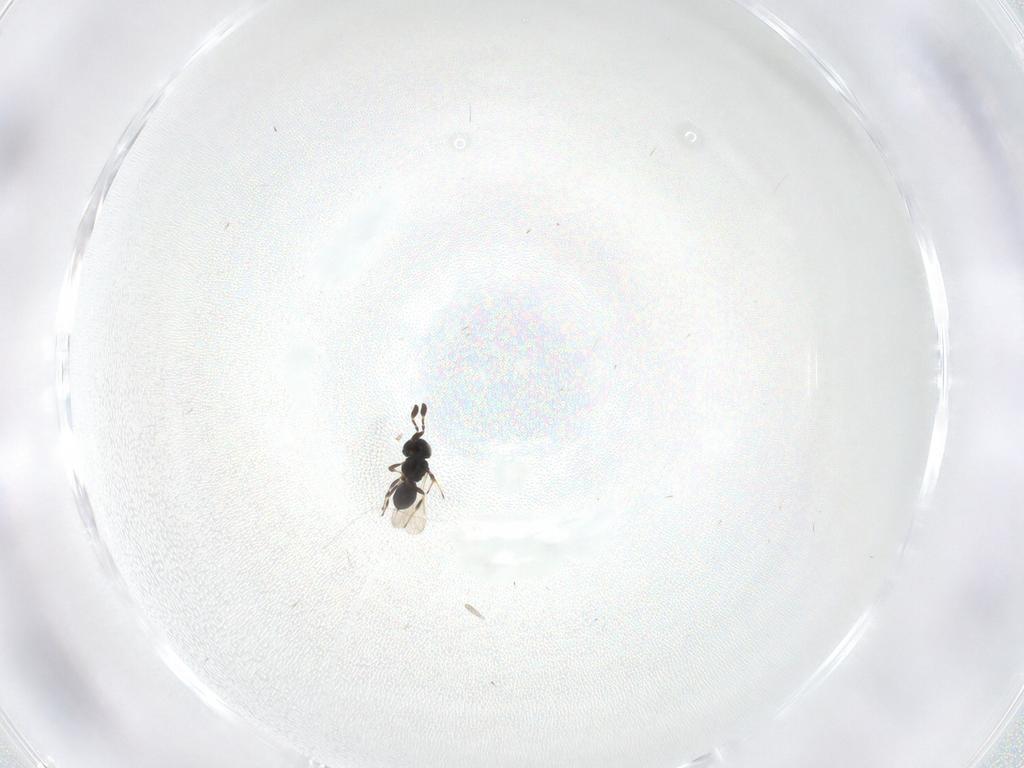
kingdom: Animalia
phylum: Arthropoda
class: Insecta
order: Hymenoptera
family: Scelionidae
